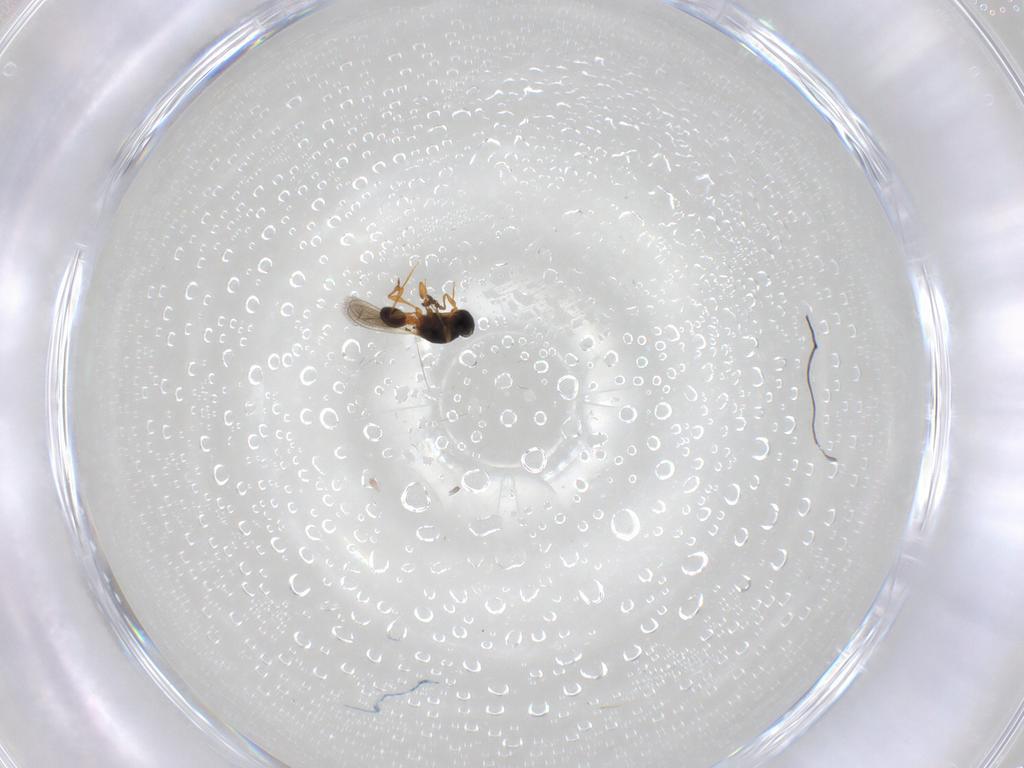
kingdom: Animalia
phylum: Arthropoda
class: Insecta
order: Hymenoptera
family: Platygastridae
